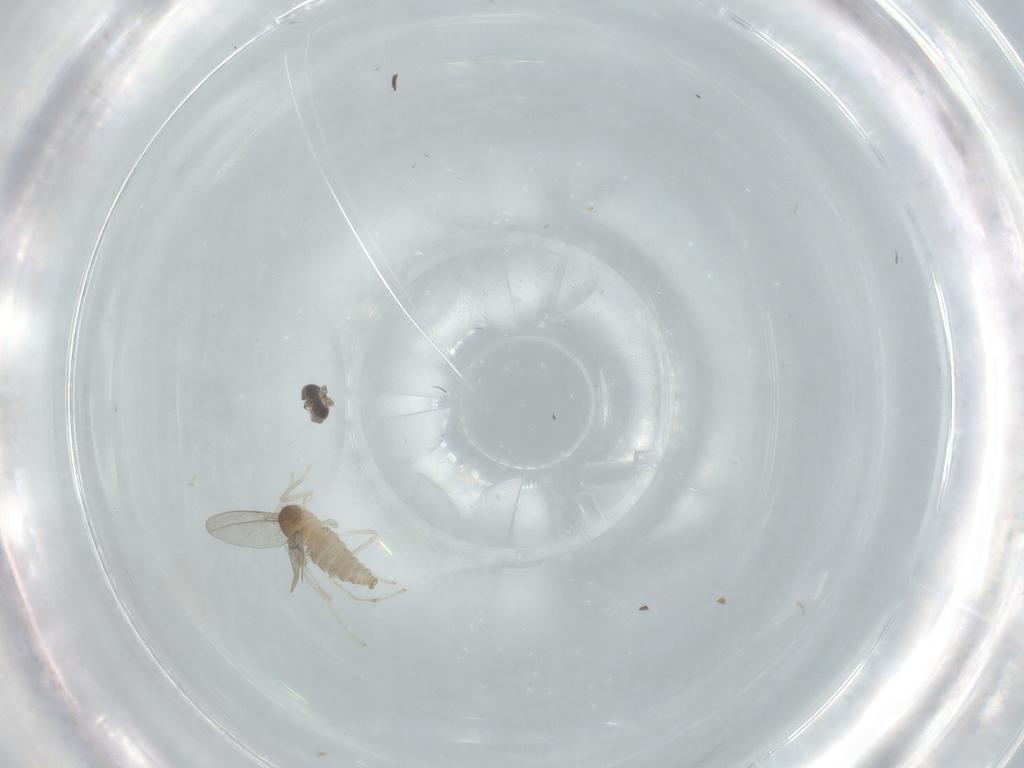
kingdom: Animalia
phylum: Arthropoda
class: Insecta
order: Diptera
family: Cecidomyiidae
